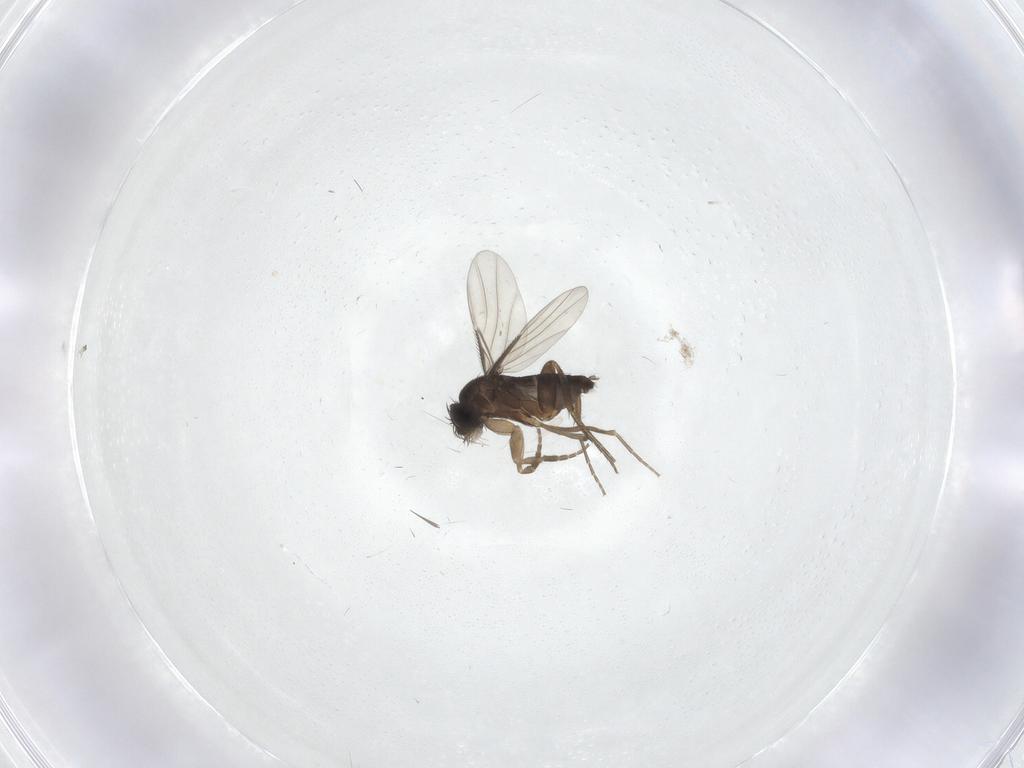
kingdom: Animalia
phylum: Arthropoda
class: Insecta
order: Diptera
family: Phoridae
